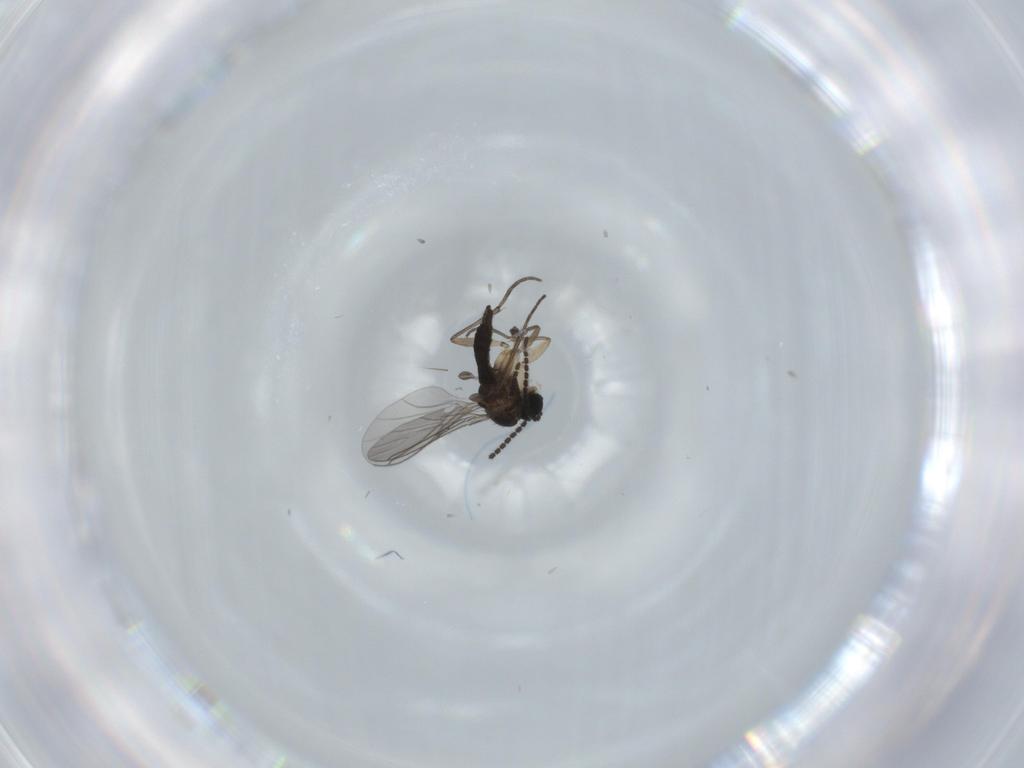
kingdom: Animalia
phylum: Arthropoda
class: Insecta
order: Diptera
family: Sciaridae
